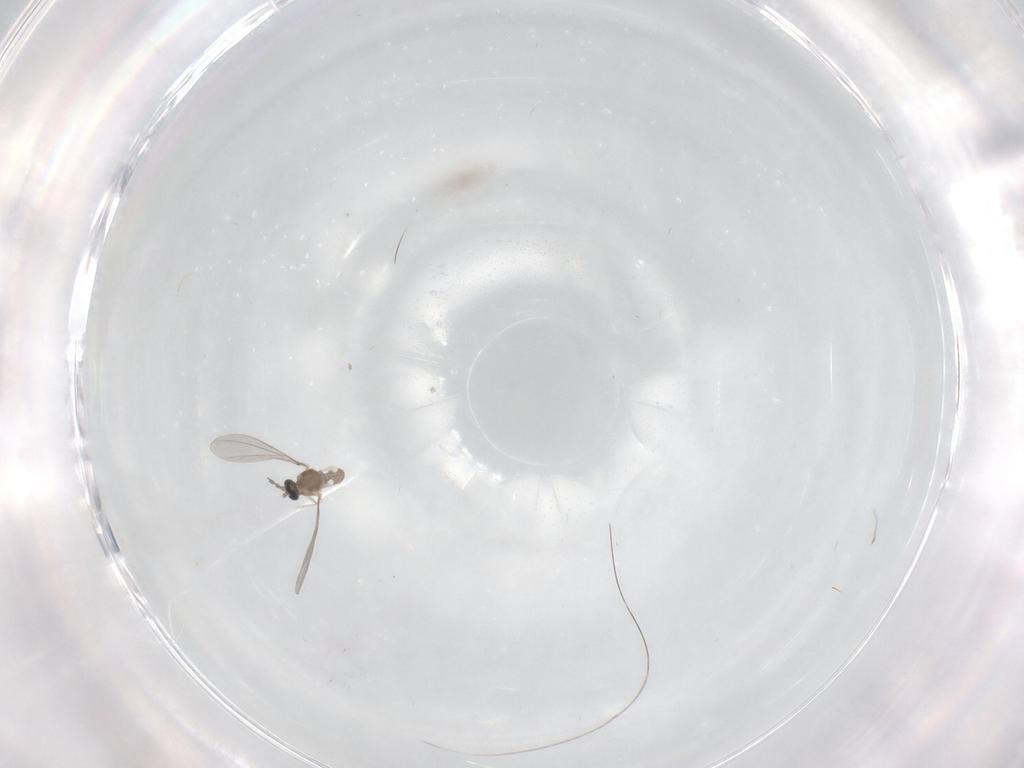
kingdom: Animalia
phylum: Arthropoda
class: Insecta
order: Diptera
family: Cecidomyiidae
